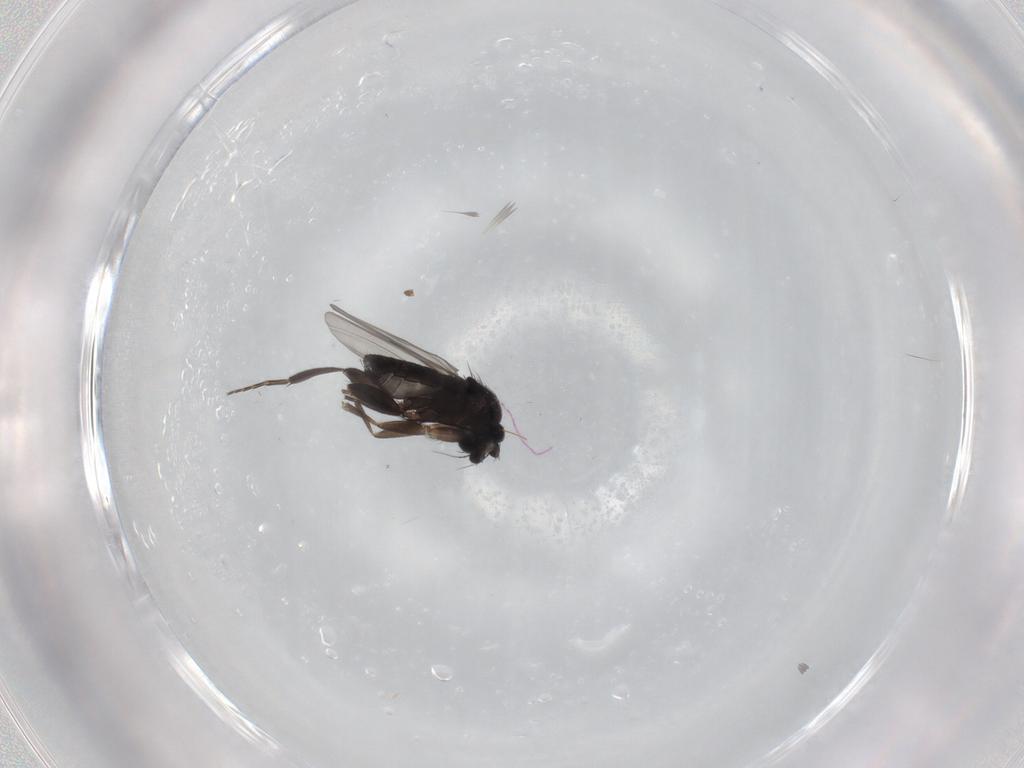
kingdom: Animalia
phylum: Arthropoda
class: Insecta
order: Diptera
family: Phoridae
